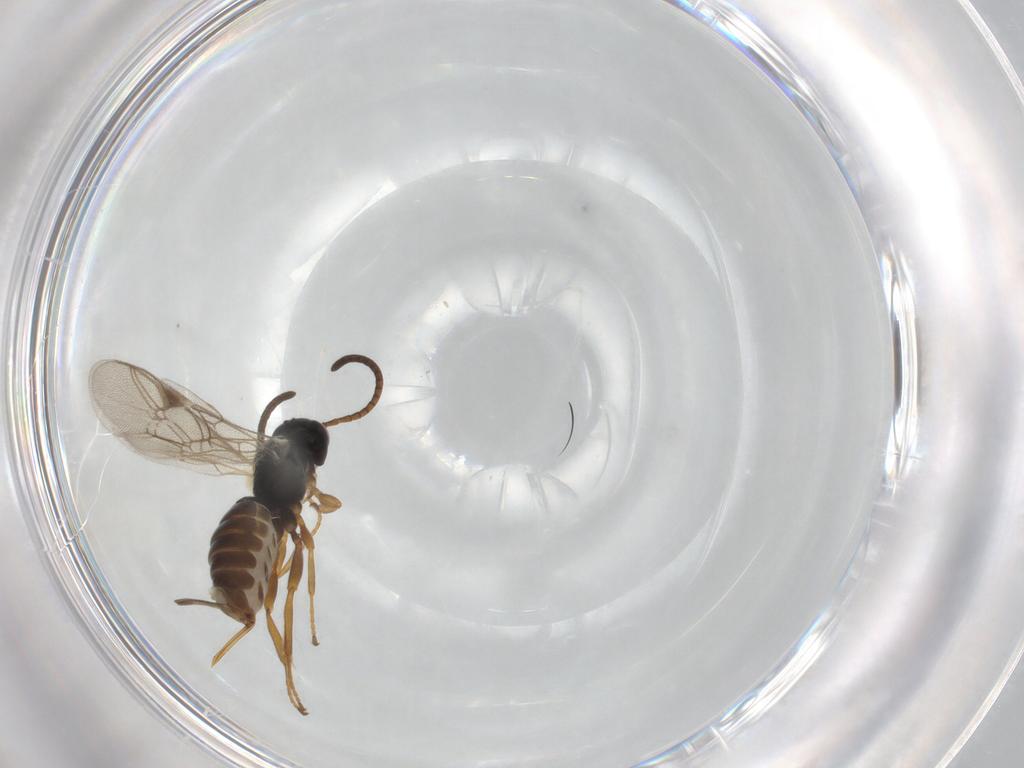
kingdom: Animalia
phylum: Arthropoda
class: Insecta
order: Hymenoptera
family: Ichneumonidae
